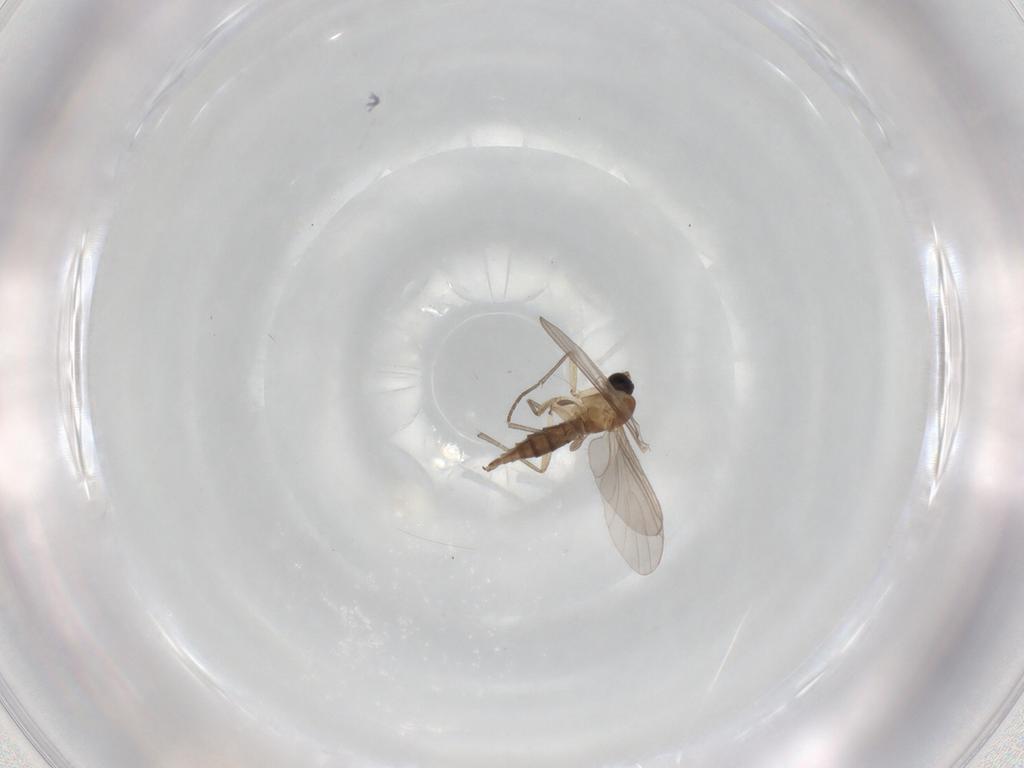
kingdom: Animalia
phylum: Arthropoda
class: Insecta
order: Diptera
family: Sciaridae
